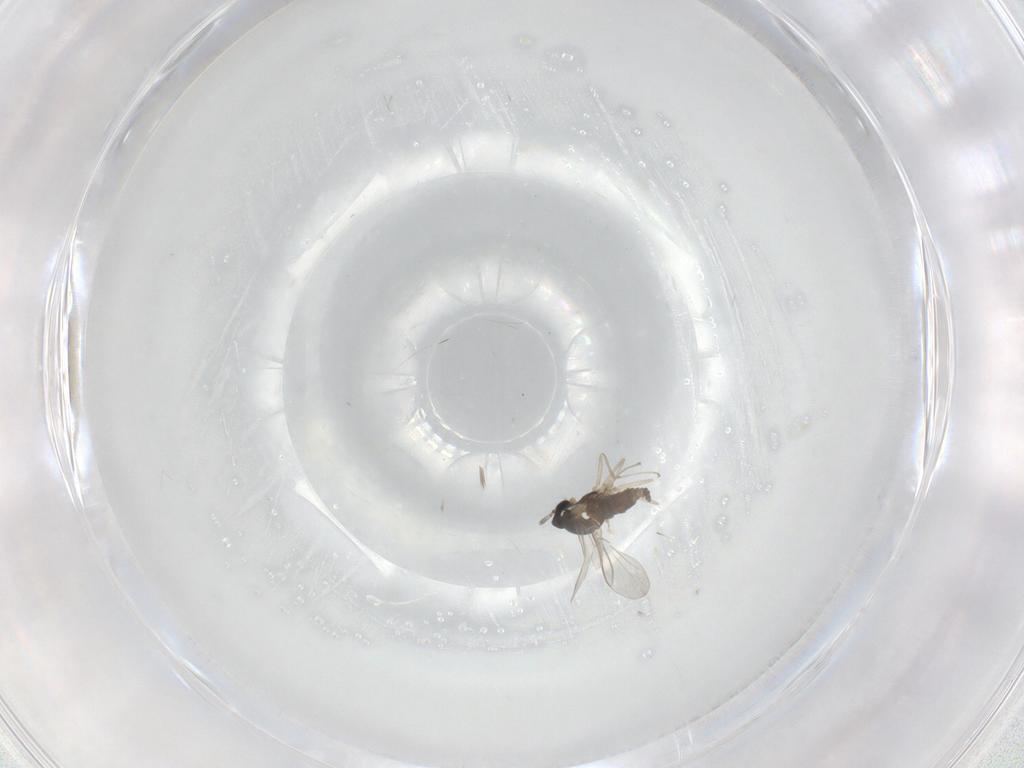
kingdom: Animalia
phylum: Arthropoda
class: Insecta
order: Diptera
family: Cecidomyiidae
